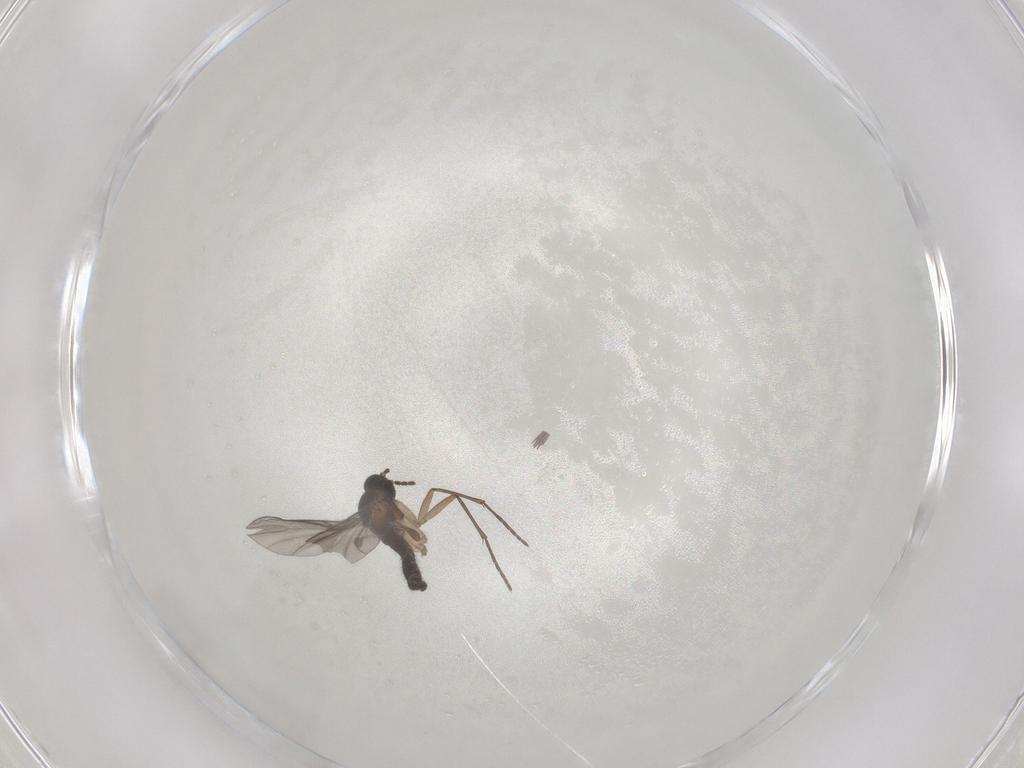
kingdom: Animalia
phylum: Arthropoda
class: Insecta
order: Diptera
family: Sciaridae
